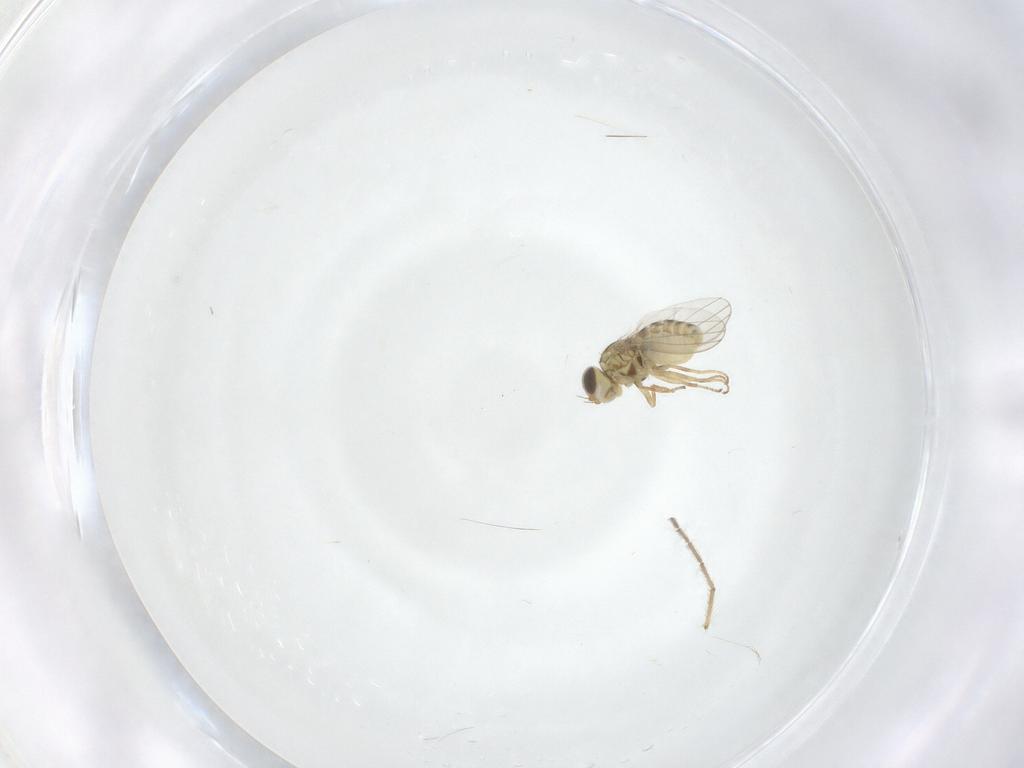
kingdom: Animalia
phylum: Arthropoda
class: Insecta
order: Diptera
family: Chyromyidae
